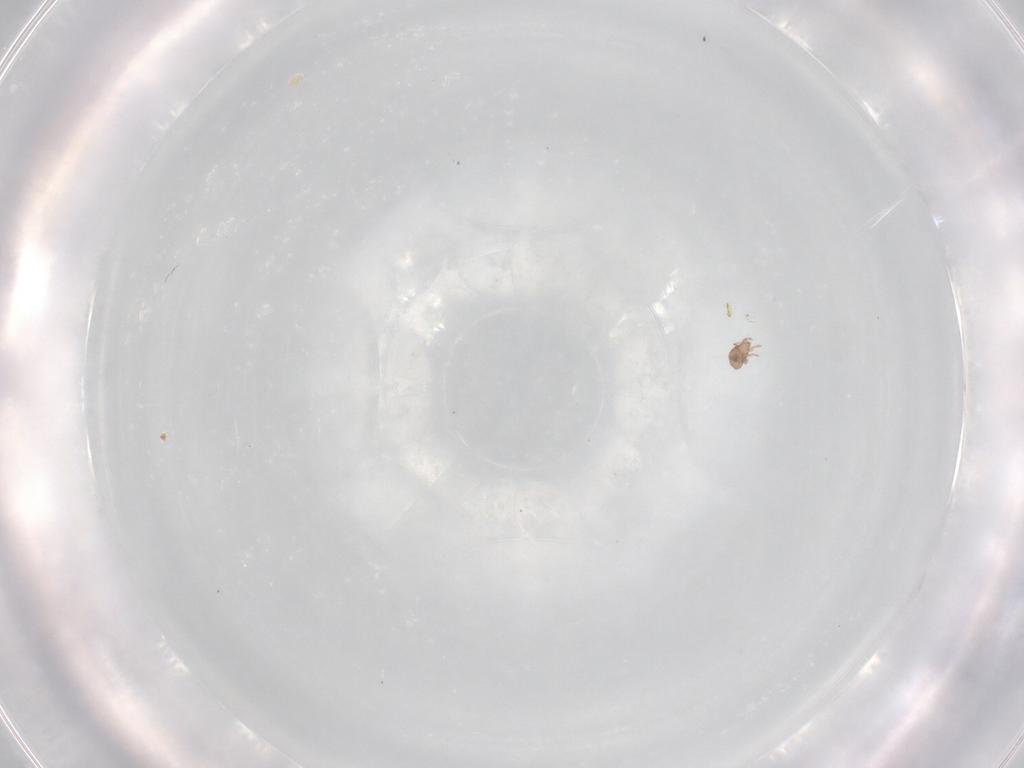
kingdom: Animalia
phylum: Arthropoda
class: Arachnida
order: Sarcoptiformes
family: Eremaeidae
